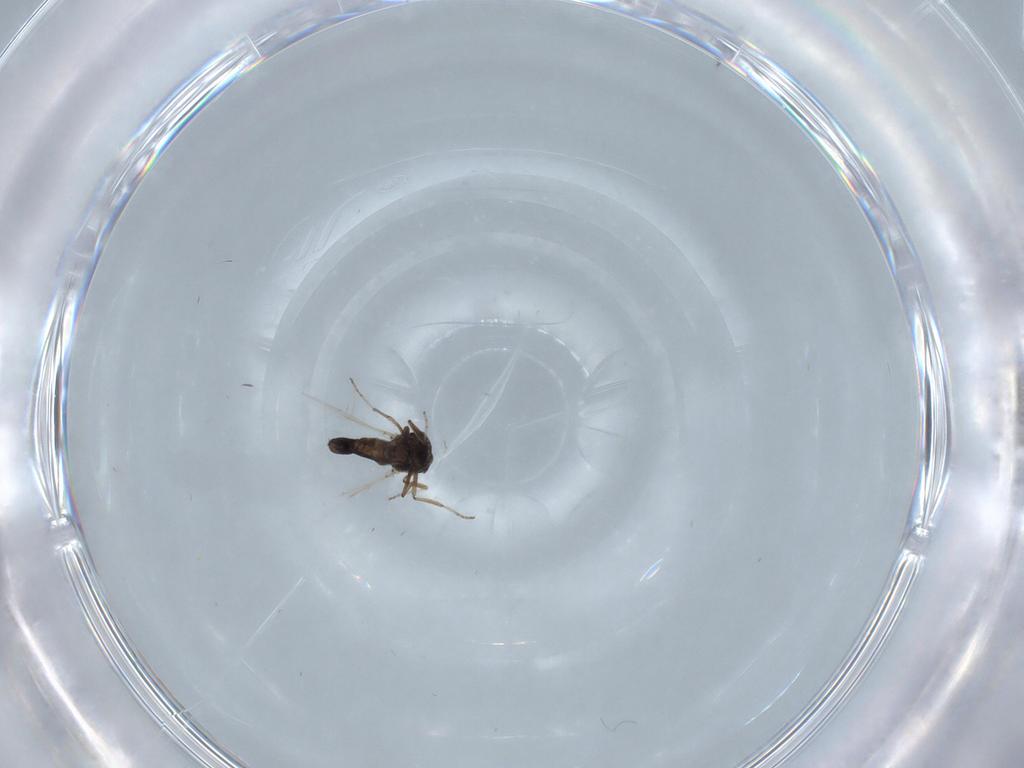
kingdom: Animalia
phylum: Arthropoda
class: Insecta
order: Diptera
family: Ceratopogonidae
